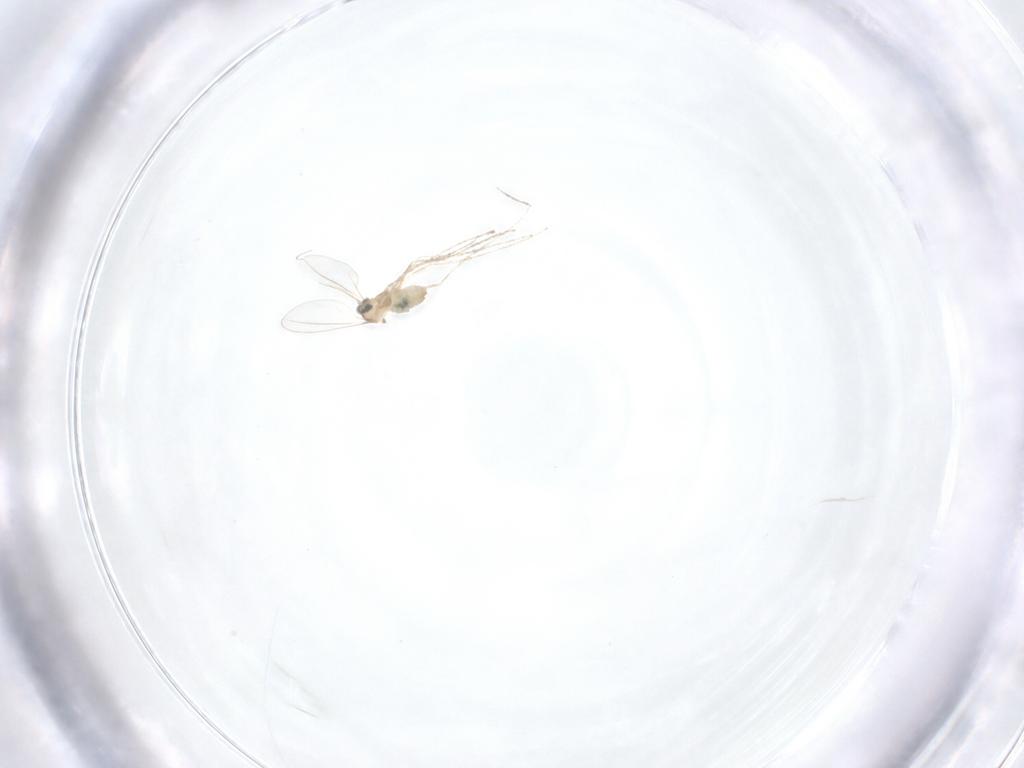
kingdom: Animalia
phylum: Arthropoda
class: Insecta
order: Diptera
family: Cecidomyiidae
